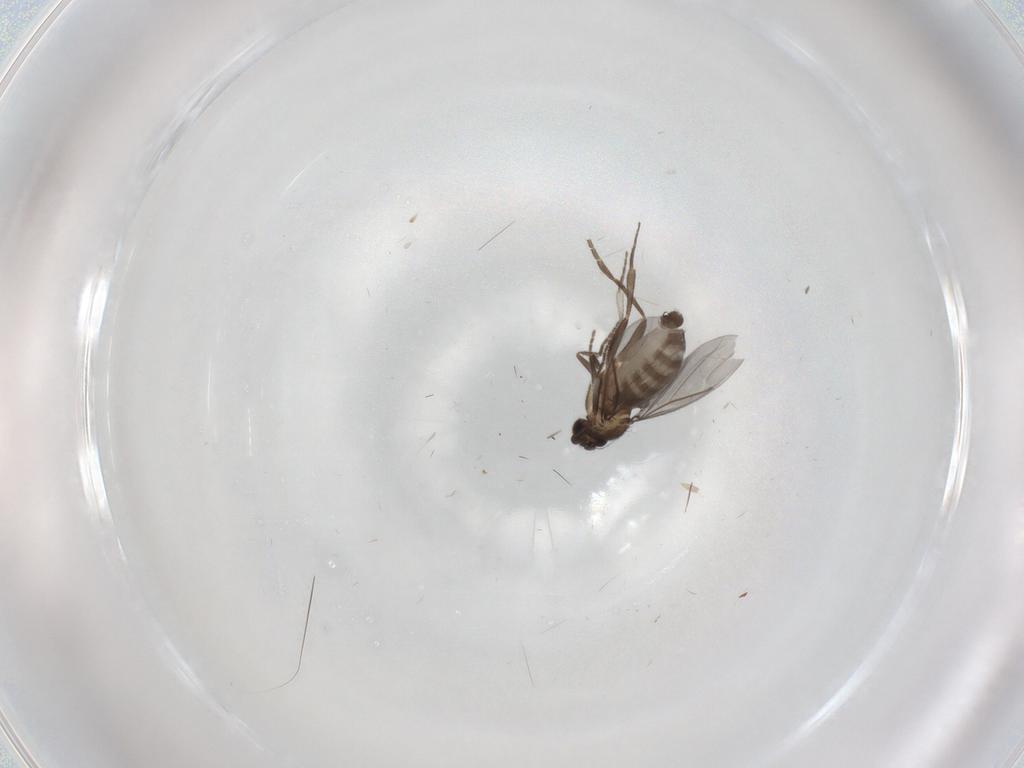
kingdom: Animalia
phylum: Arthropoda
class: Insecta
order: Diptera
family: Phoridae
